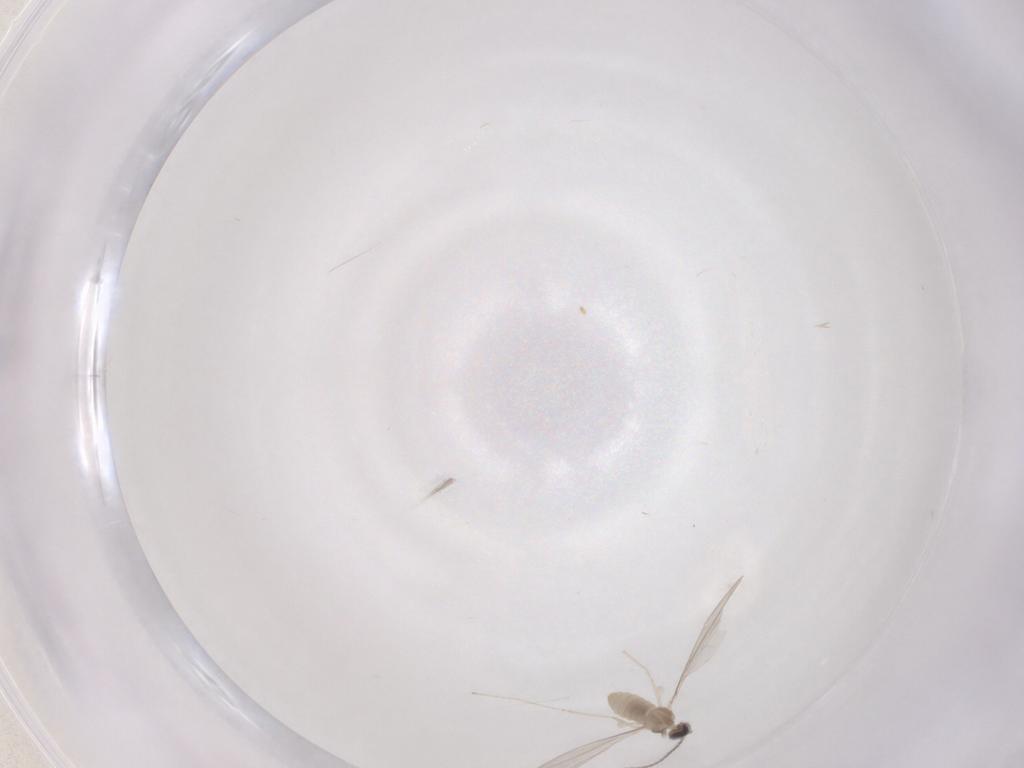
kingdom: Animalia
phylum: Arthropoda
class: Insecta
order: Diptera
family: Cecidomyiidae
